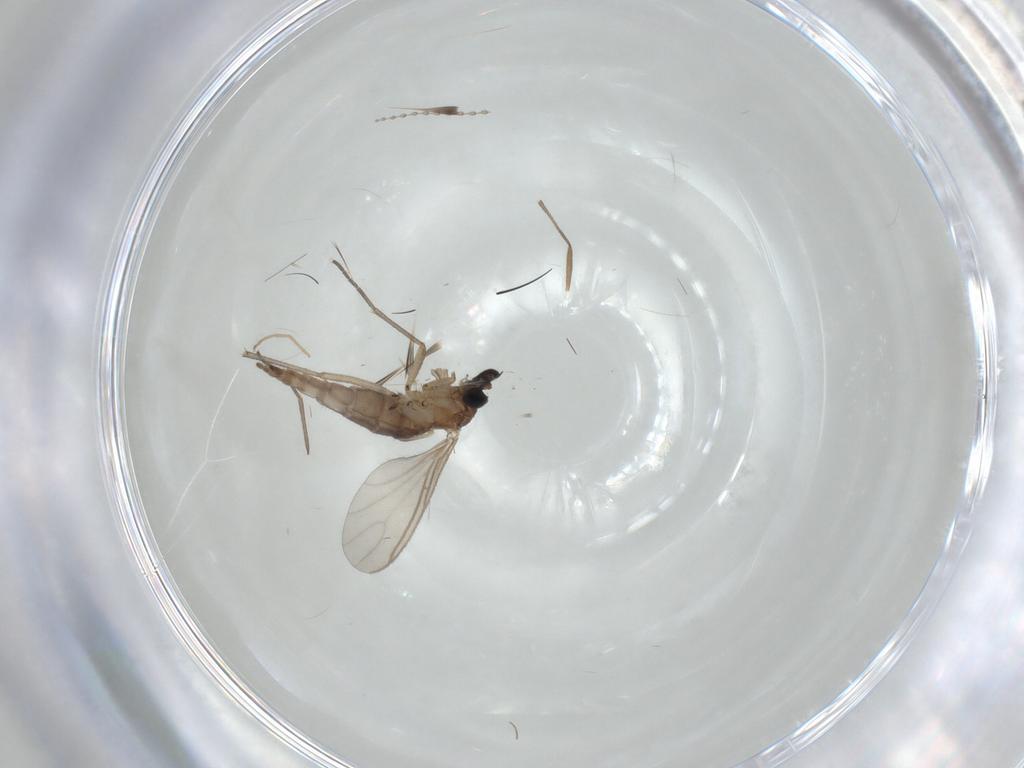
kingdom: Animalia
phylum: Arthropoda
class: Insecta
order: Diptera
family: Sciaridae
